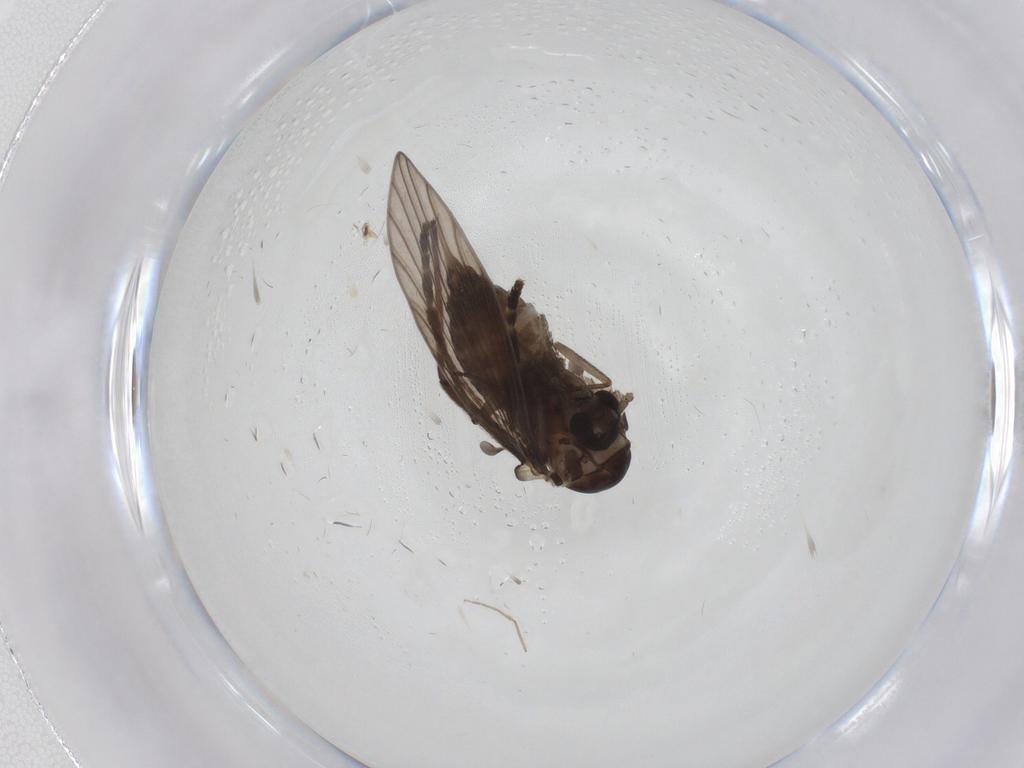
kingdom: Animalia
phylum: Arthropoda
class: Insecta
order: Diptera
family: Psychodidae
